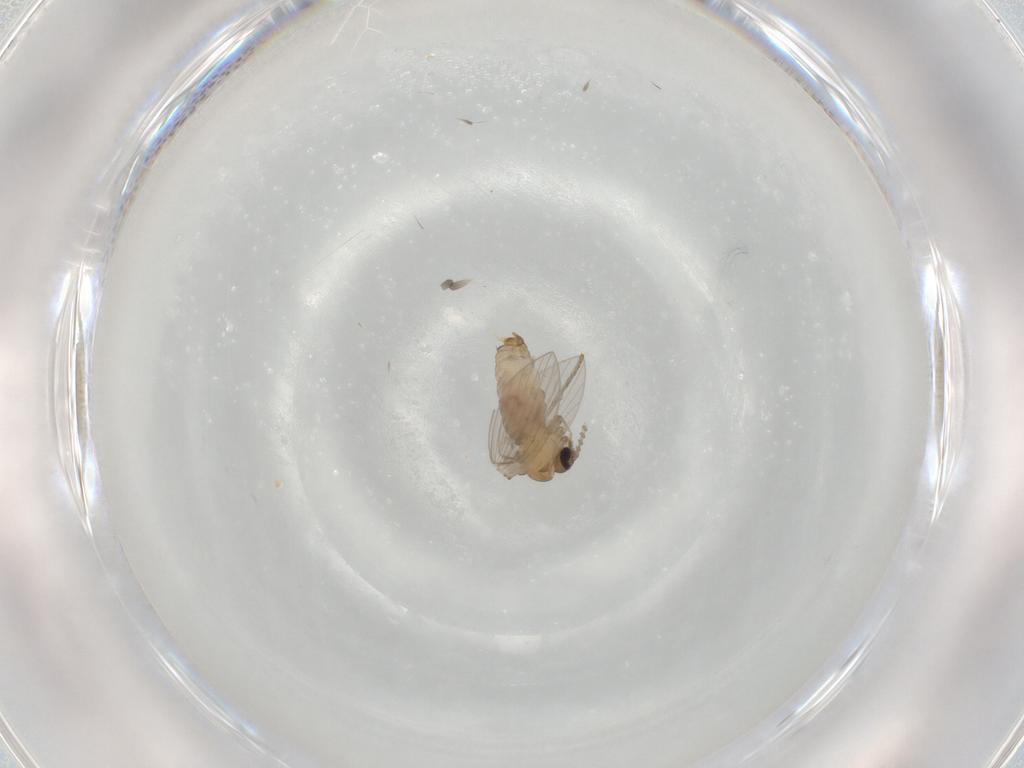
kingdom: Animalia
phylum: Arthropoda
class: Insecta
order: Diptera
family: Psychodidae
